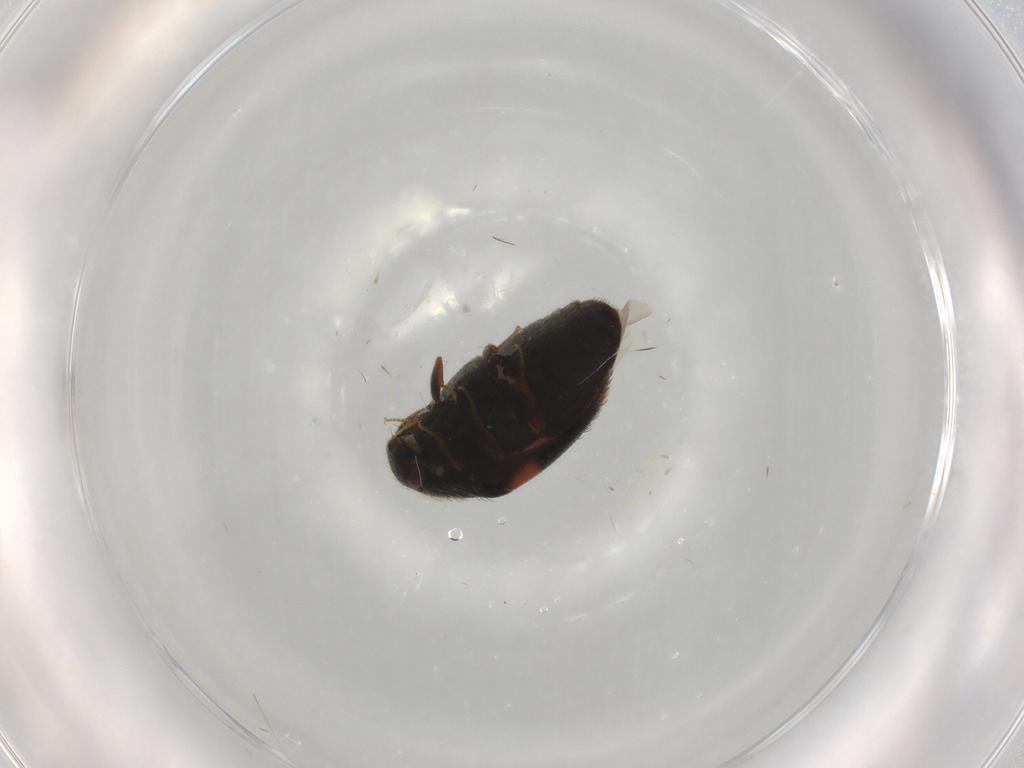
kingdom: Animalia
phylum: Arthropoda
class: Insecta
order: Coleoptera
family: Dermestidae
